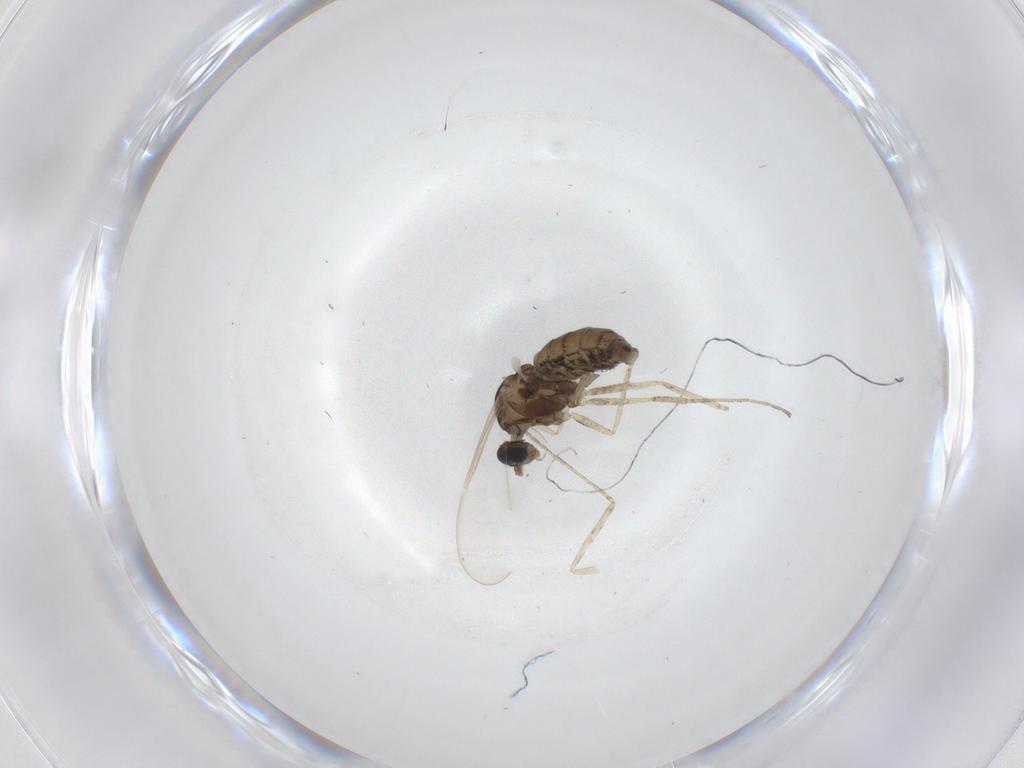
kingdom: Animalia
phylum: Arthropoda
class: Insecta
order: Diptera
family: Cecidomyiidae
